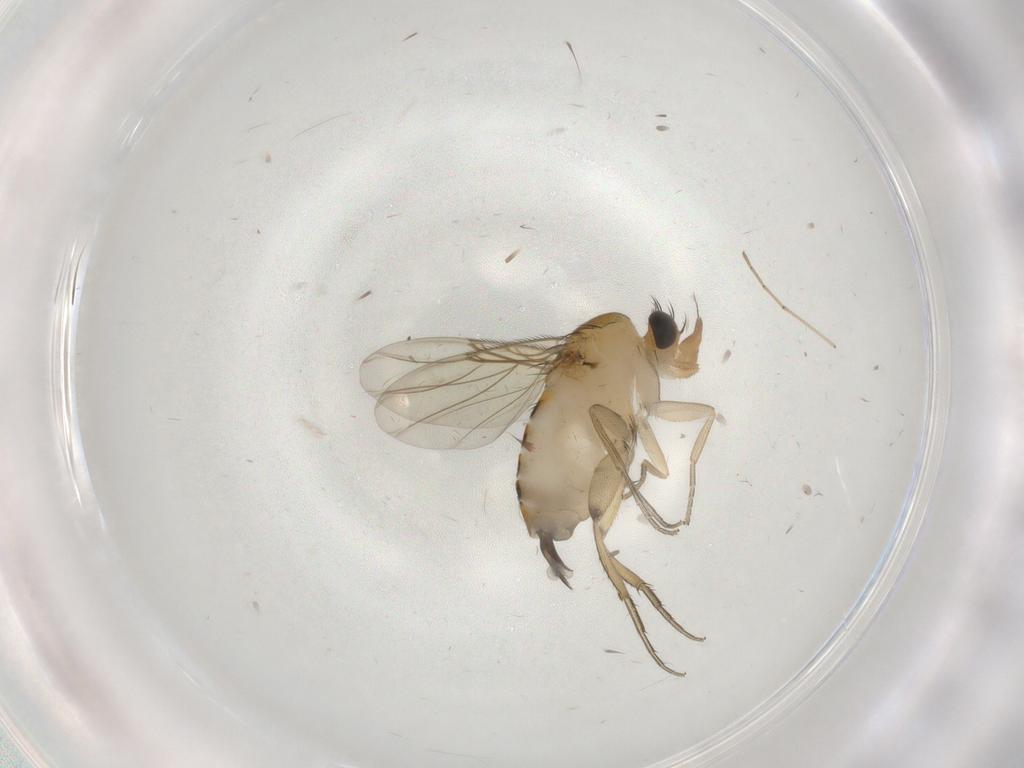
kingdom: Animalia
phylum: Arthropoda
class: Insecta
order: Diptera
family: Phoridae
